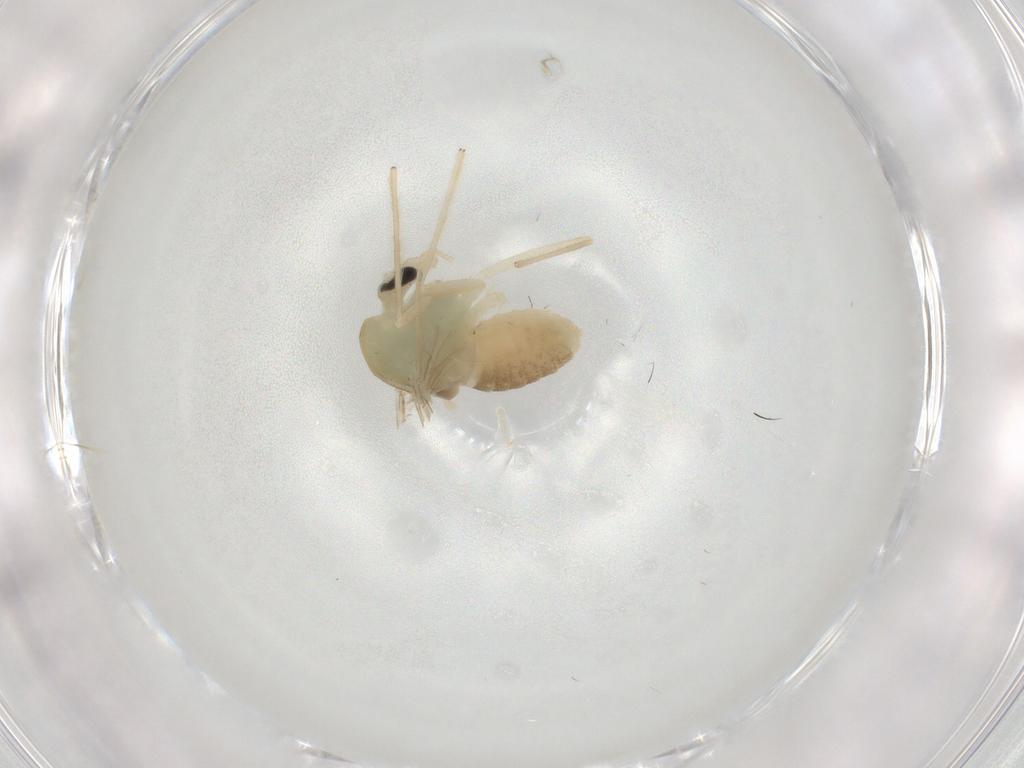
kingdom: Animalia
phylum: Arthropoda
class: Insecta
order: Diptera
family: Chironomidae
